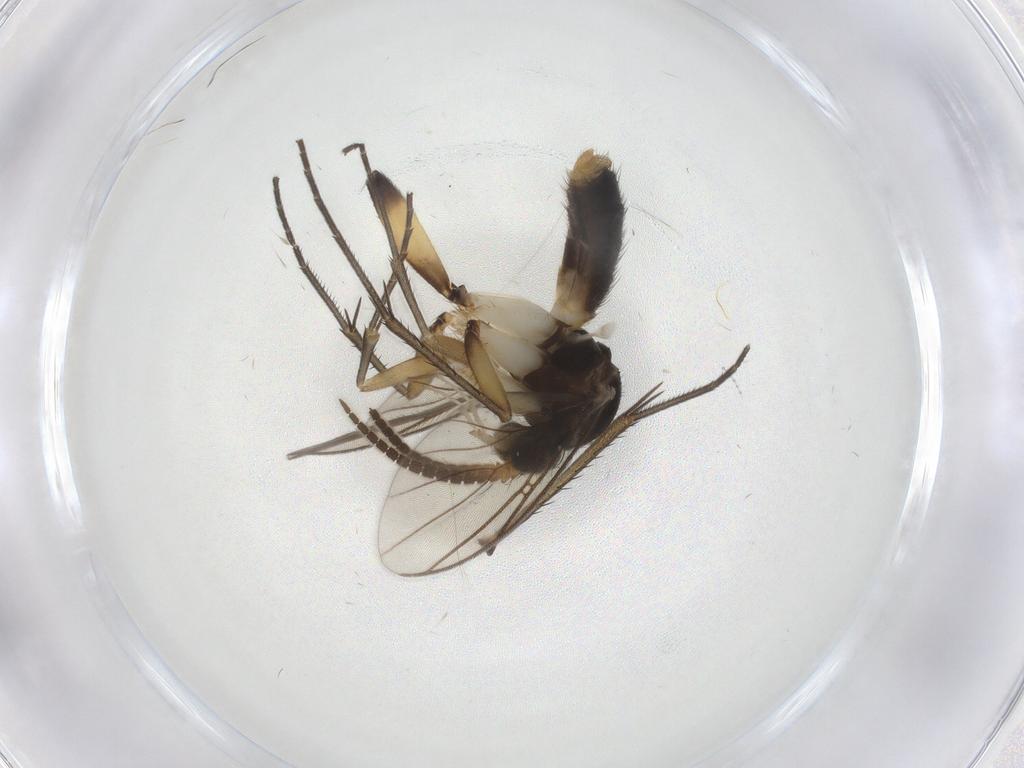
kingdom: Animalia
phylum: Arthropoda
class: Insecta
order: Diptera
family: Ditomyiidae
